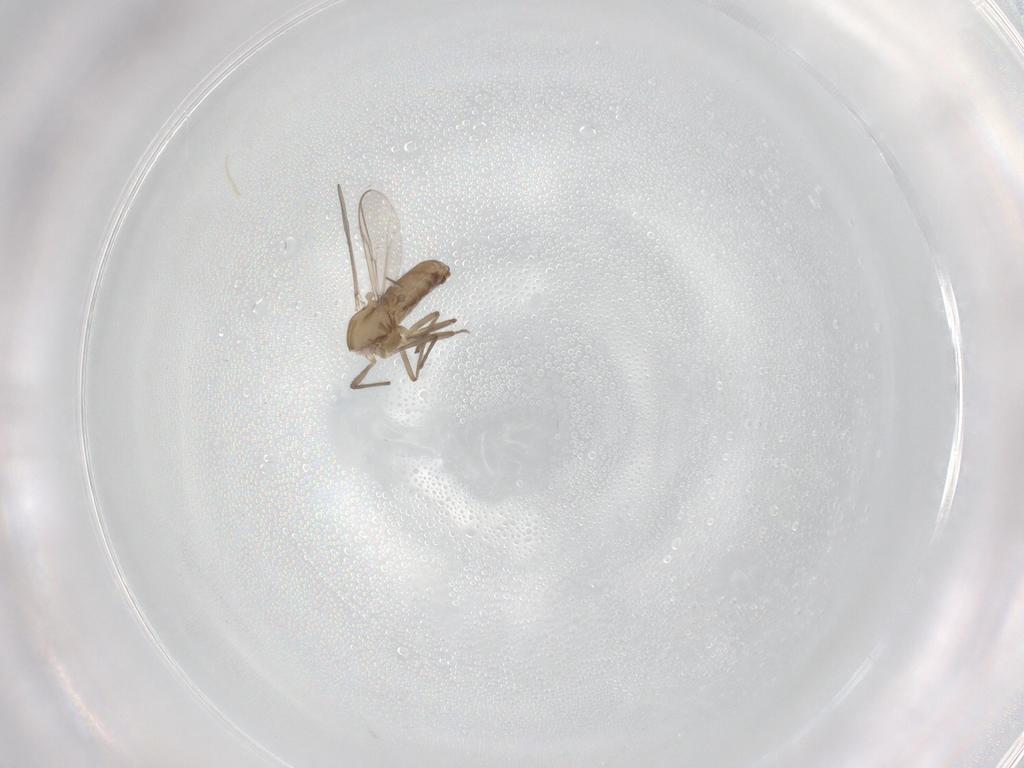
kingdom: Animalia
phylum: Arthropoda
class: Insecta
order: Diptera
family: Chironomidae
